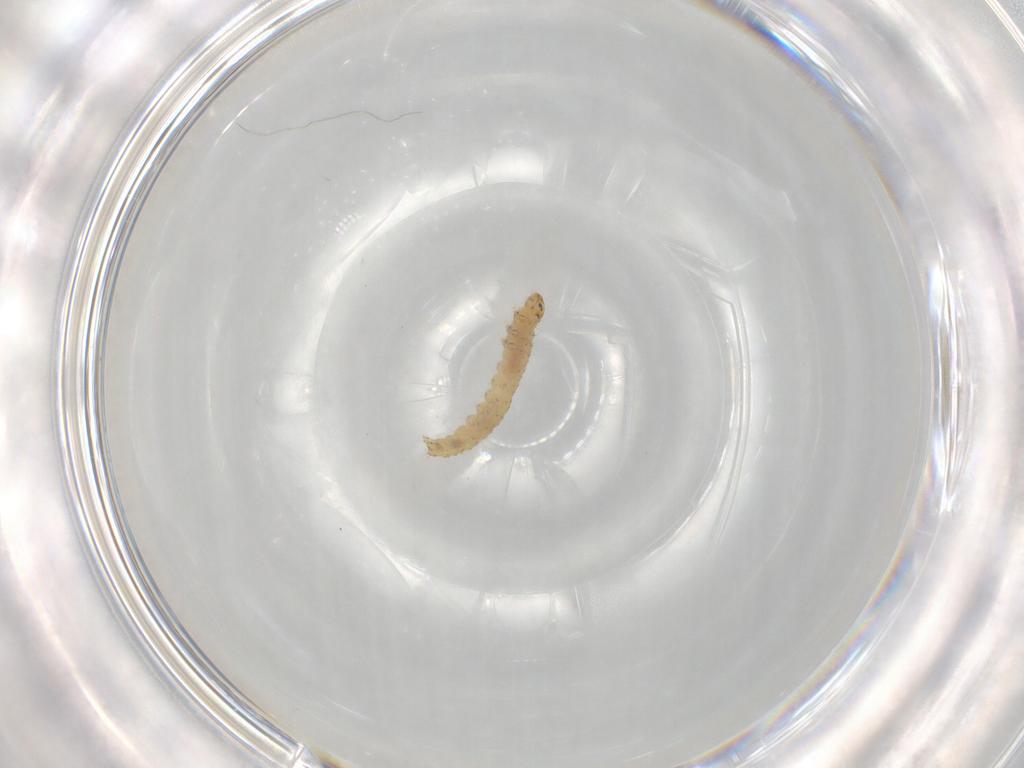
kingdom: Animalia
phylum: Arthropoda
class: Insecta
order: Lepidoptera
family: Gelechiidae
